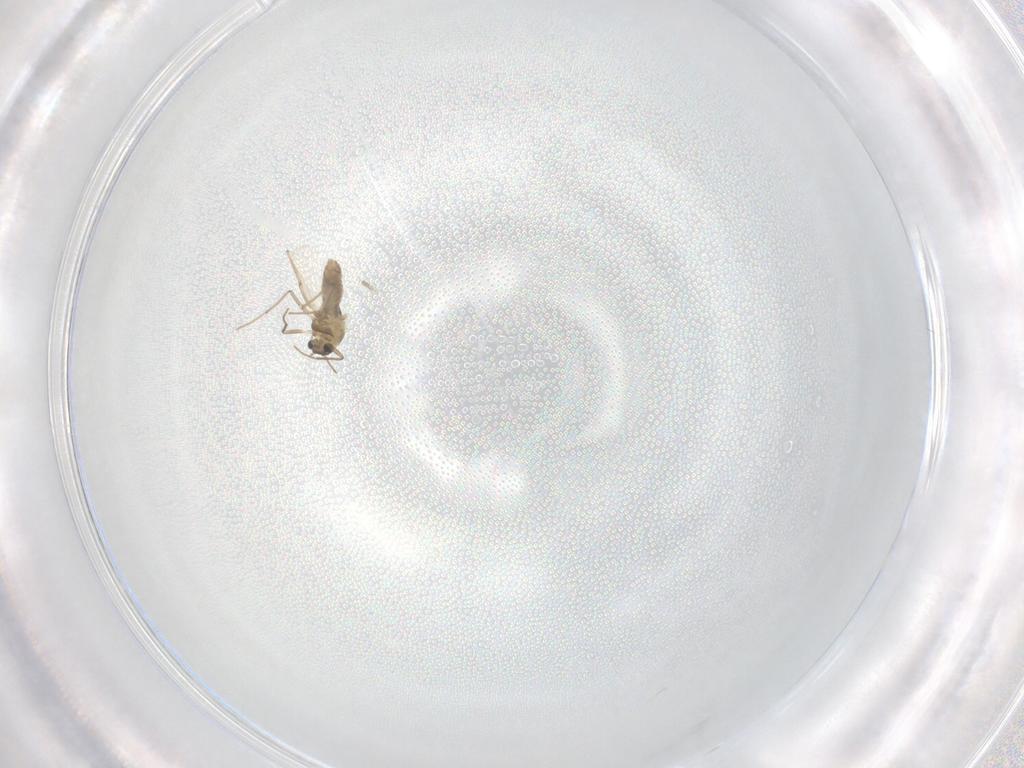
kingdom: Animalia
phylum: Arthropoda
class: Insecta
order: Diptera
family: Chironomidae
